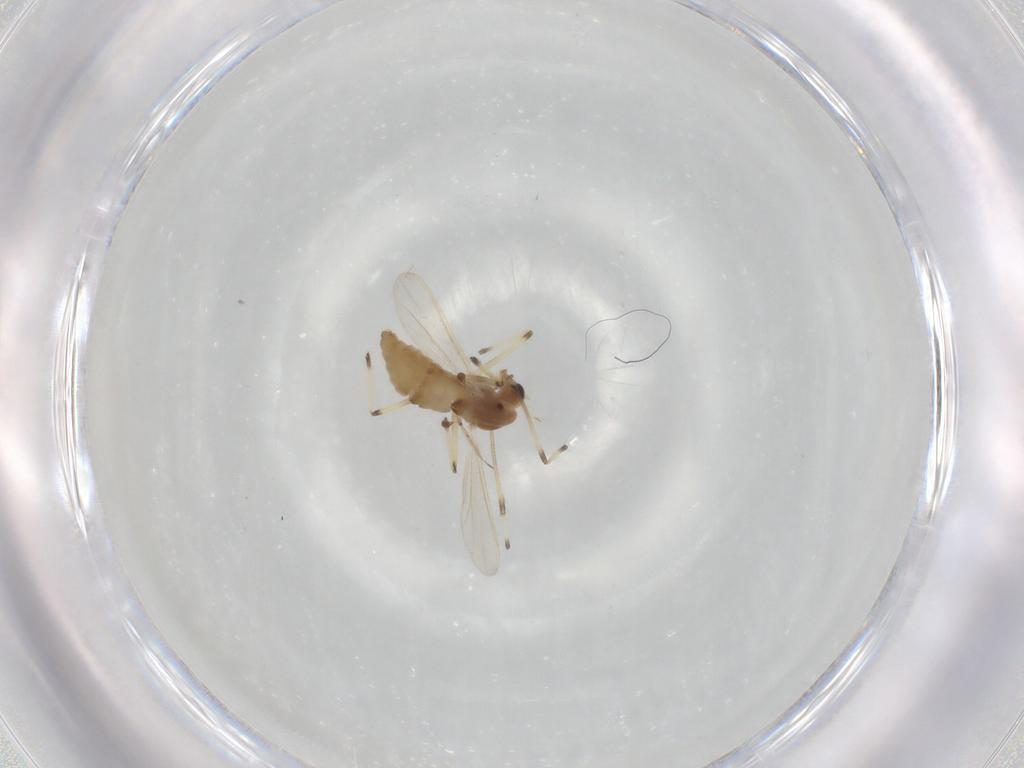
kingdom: Animalia
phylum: Arthropoda
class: Insecta
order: Diptera
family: Chironomidae
